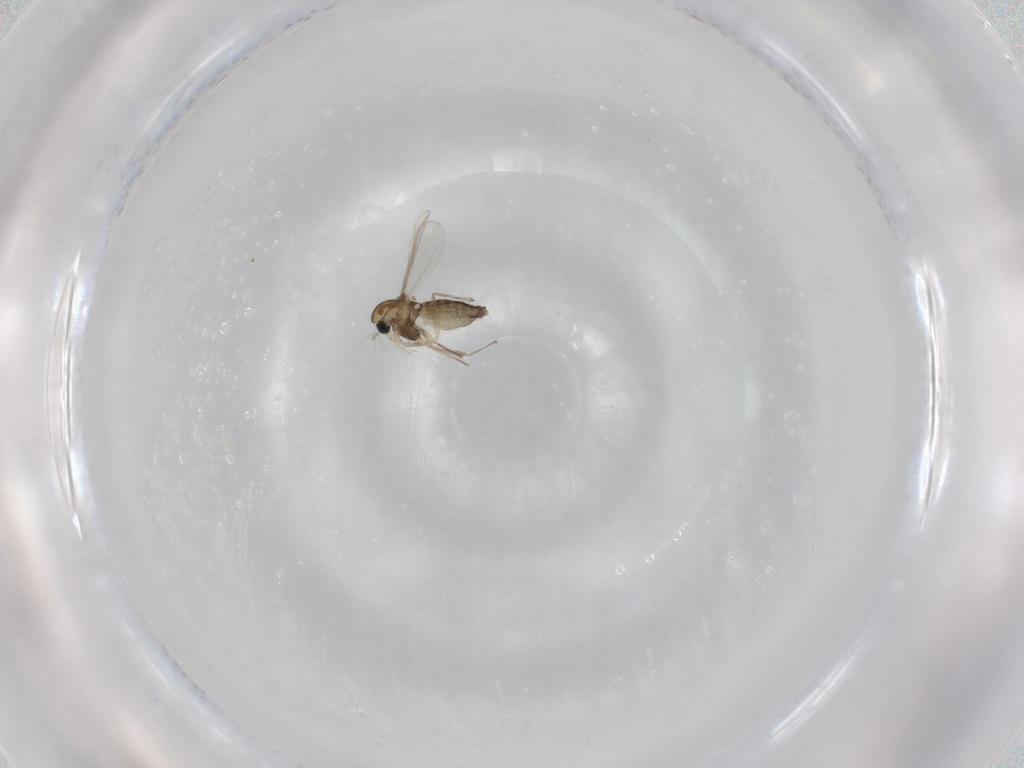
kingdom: Animalia
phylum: Arthropoda
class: Insecta
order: Diptera
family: Chironomidae
